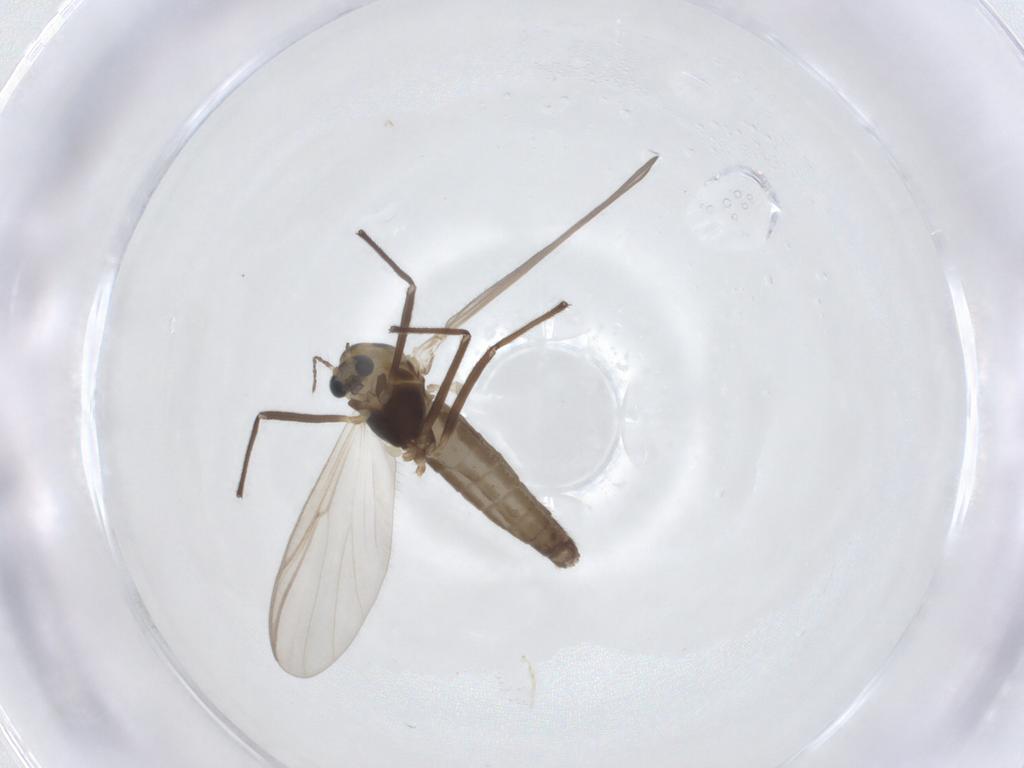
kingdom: Animalia
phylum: Arthropoda
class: Insecta
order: Diptera
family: Chironomidae
